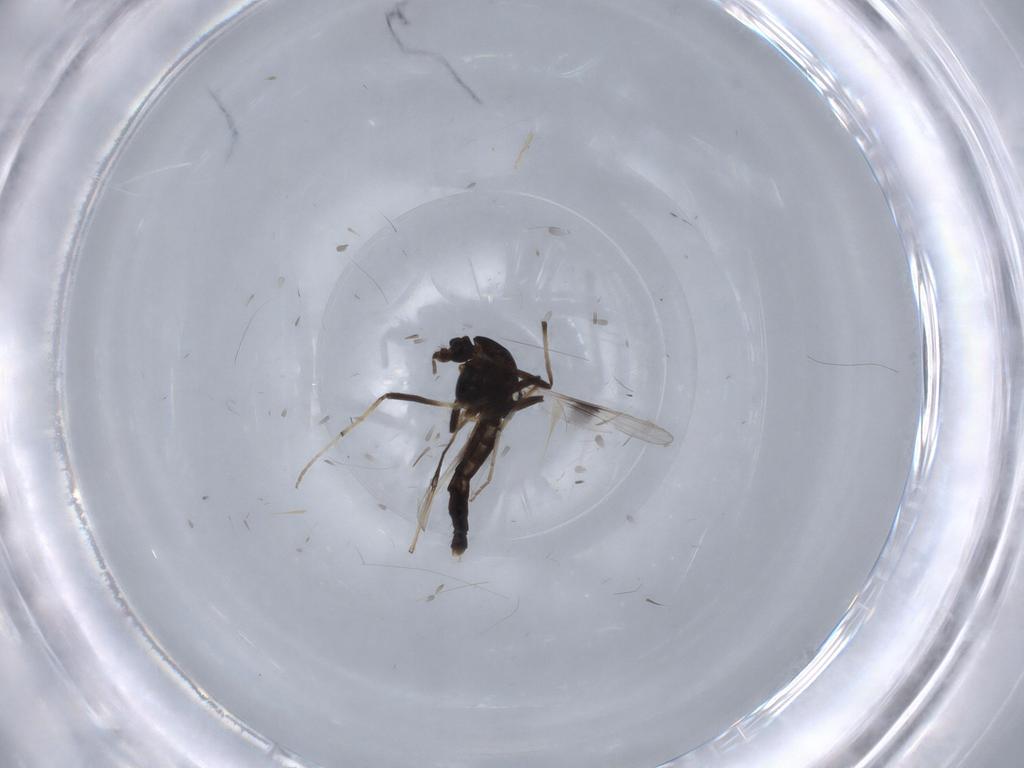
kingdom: Animalia
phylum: Arthropoda
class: Insecta
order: Diptera
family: Chironomidae
